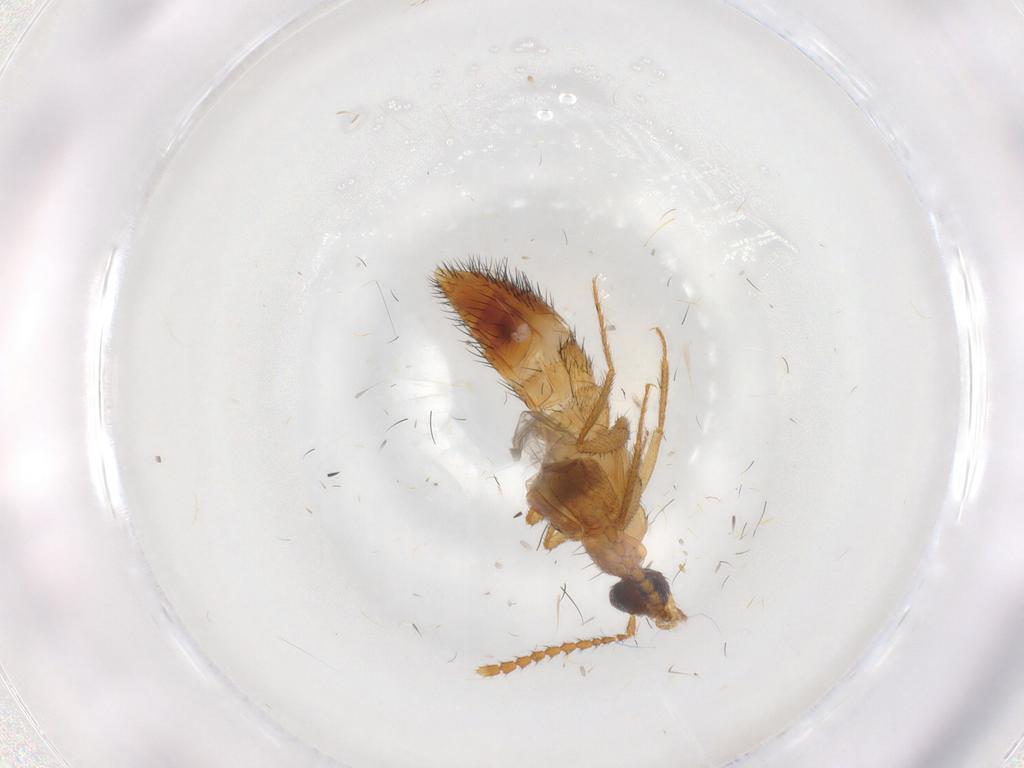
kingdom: Animalia
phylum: Arthropoda
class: Insecta
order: Coleoptera
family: Staphylinidae
